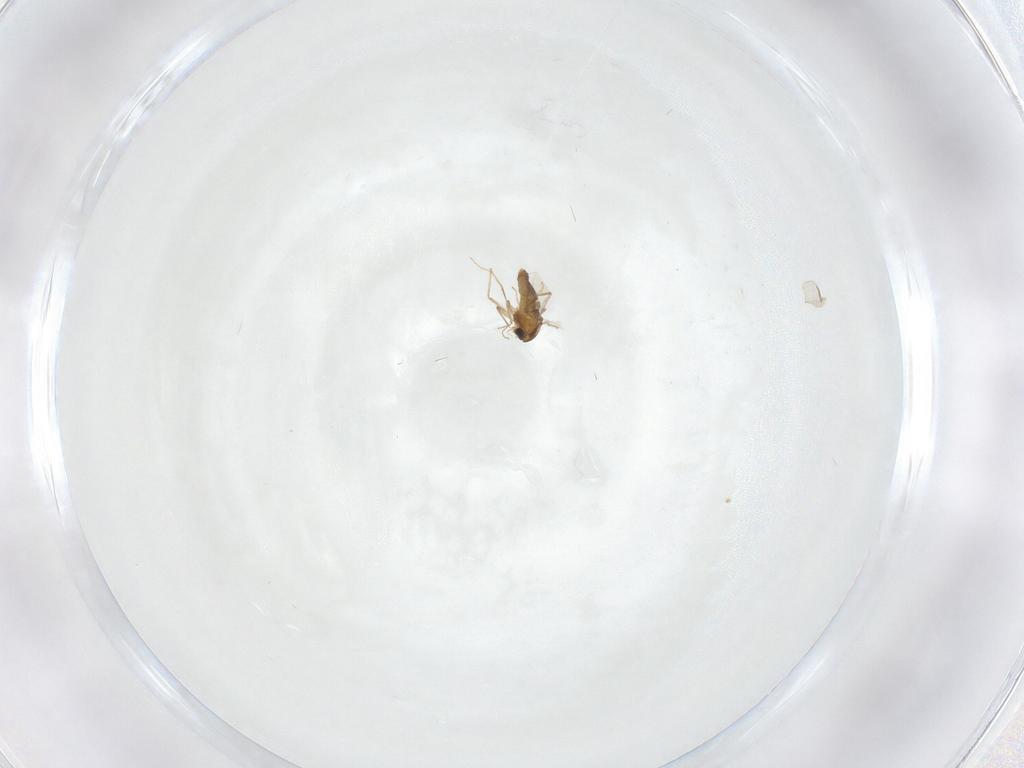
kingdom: Animalia
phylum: Arthropoda
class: Insecta
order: Diptera
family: Chironomidae
